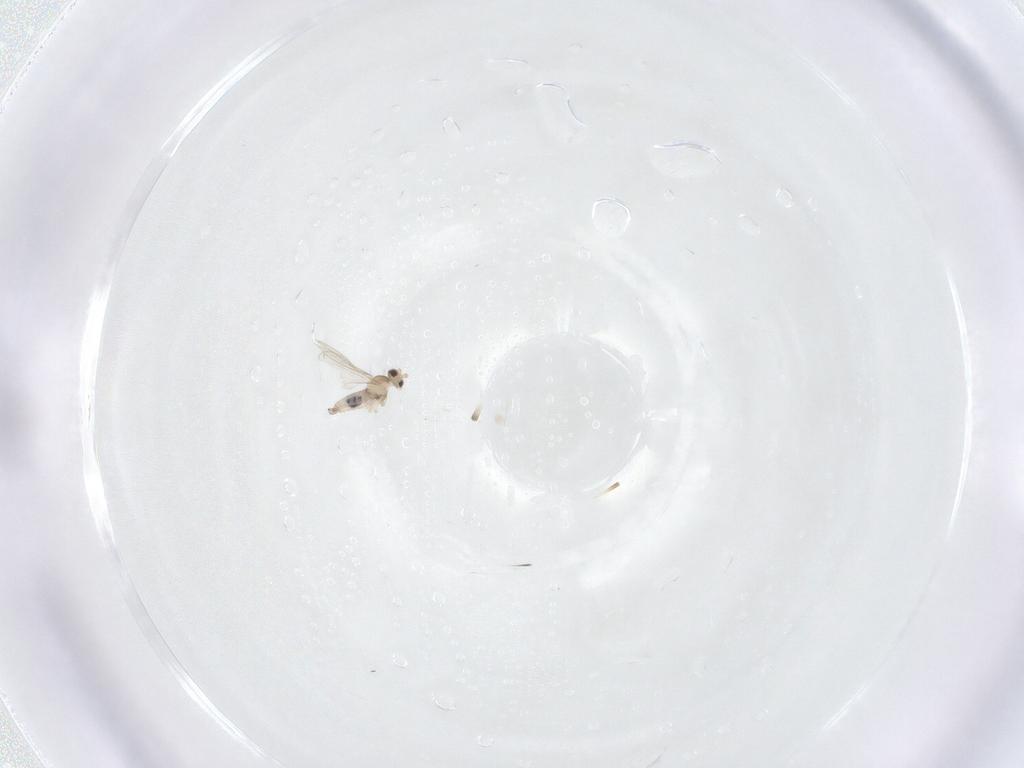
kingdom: Animalia
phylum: Arthropoda
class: Insecta
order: Diptera
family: Cecidomyiidae
